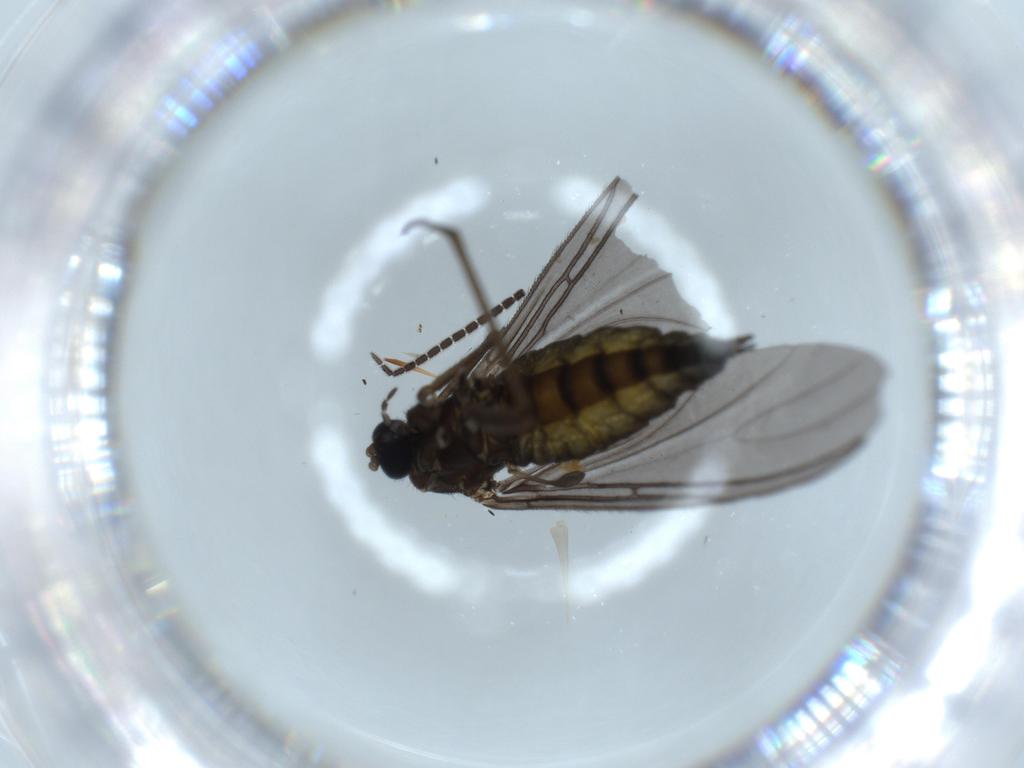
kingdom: Animalia
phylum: Arthropoda
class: Insecta
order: Diptera
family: Sciaridae
